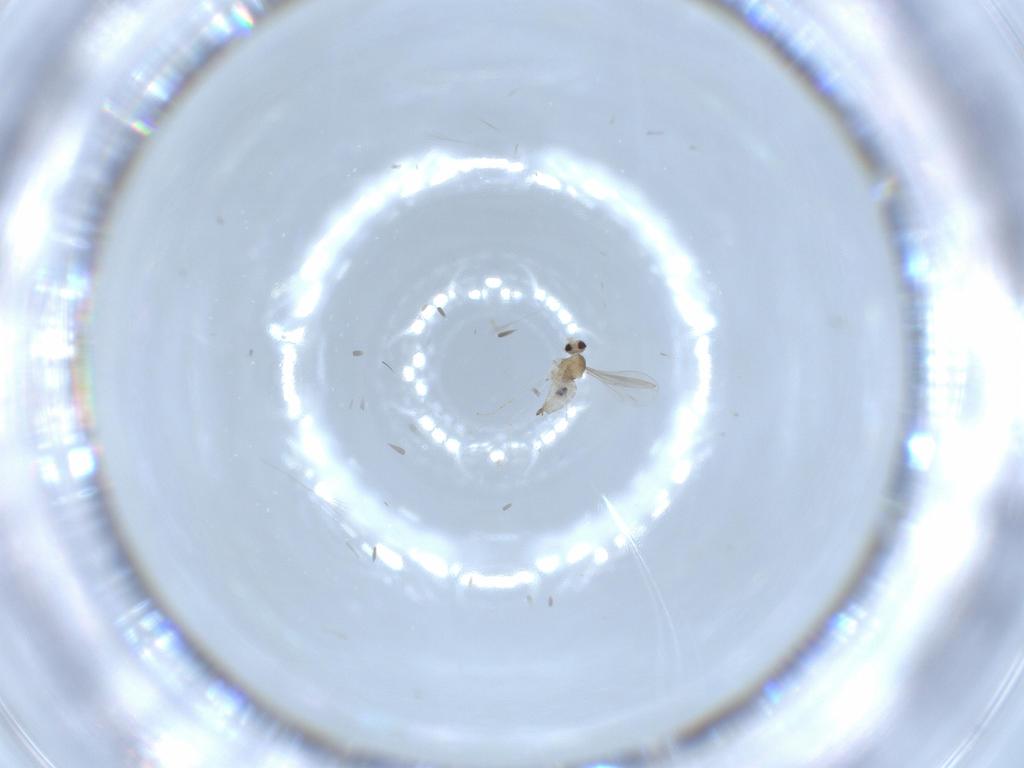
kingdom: Animalia
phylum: Arthropoda
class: Insecta
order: Diptera
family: Cecidomyiidae
